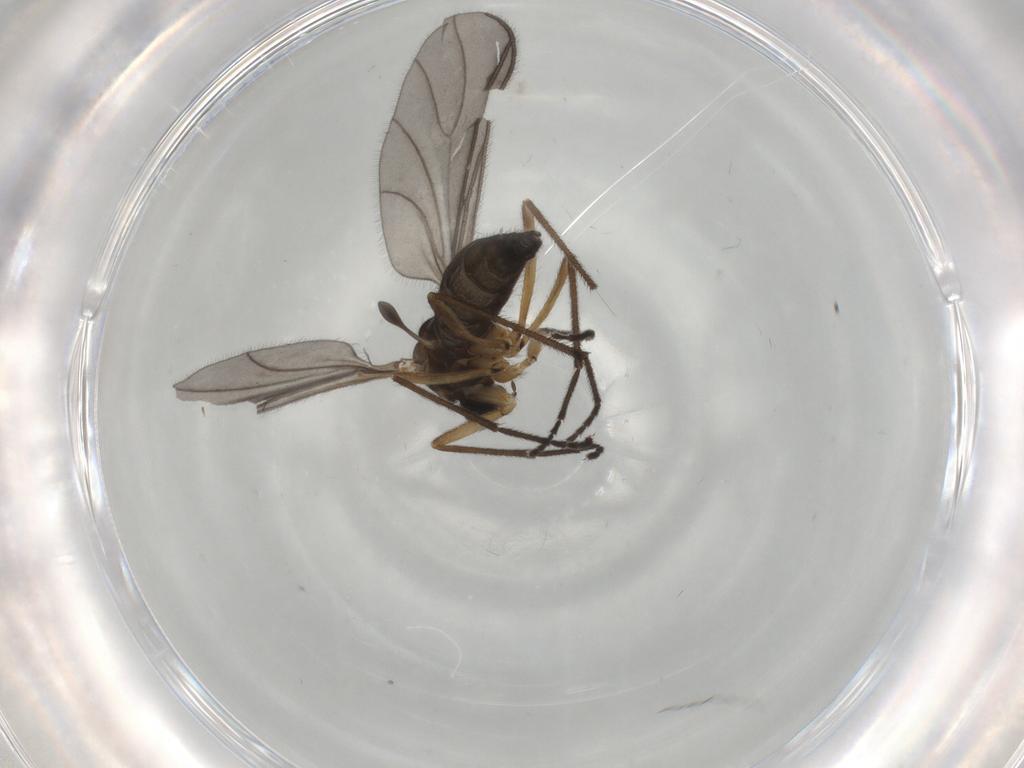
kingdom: Animalia
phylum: Arthropoda
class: Insecta
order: Diptera
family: Sciaridae
